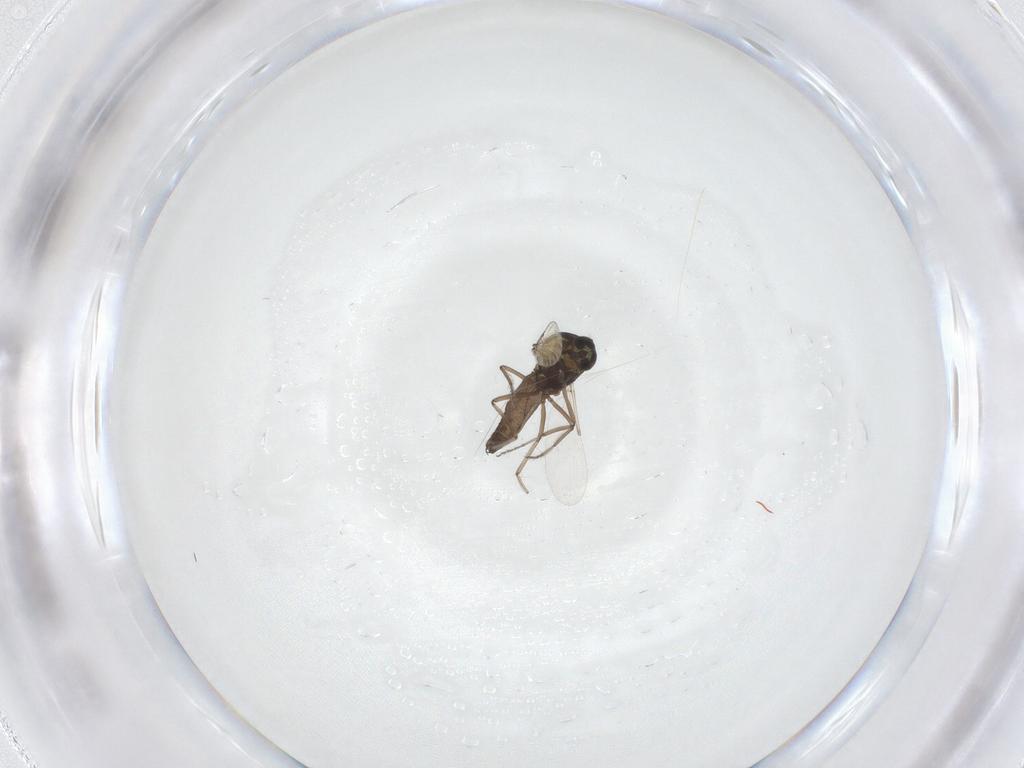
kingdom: Animalia
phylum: Arthropoda
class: Insecta
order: Diptera
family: Ceratopogonidae
